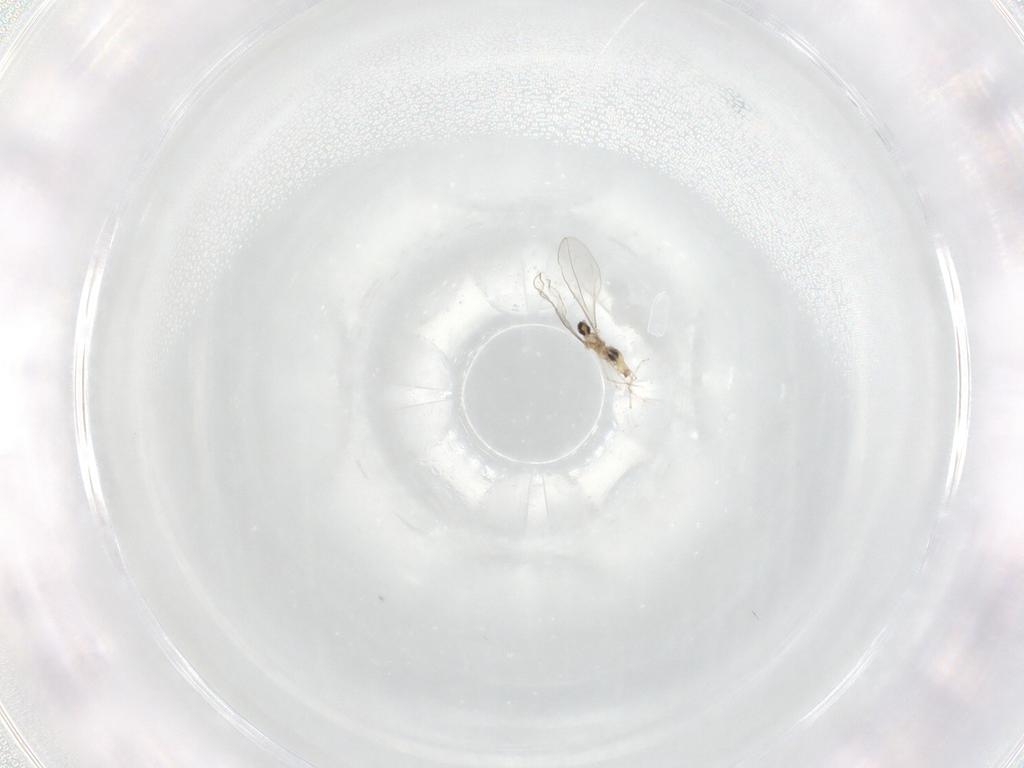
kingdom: Animalia
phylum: Arthropoda
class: Insecta
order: Diptera
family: Cecidomyiidae
